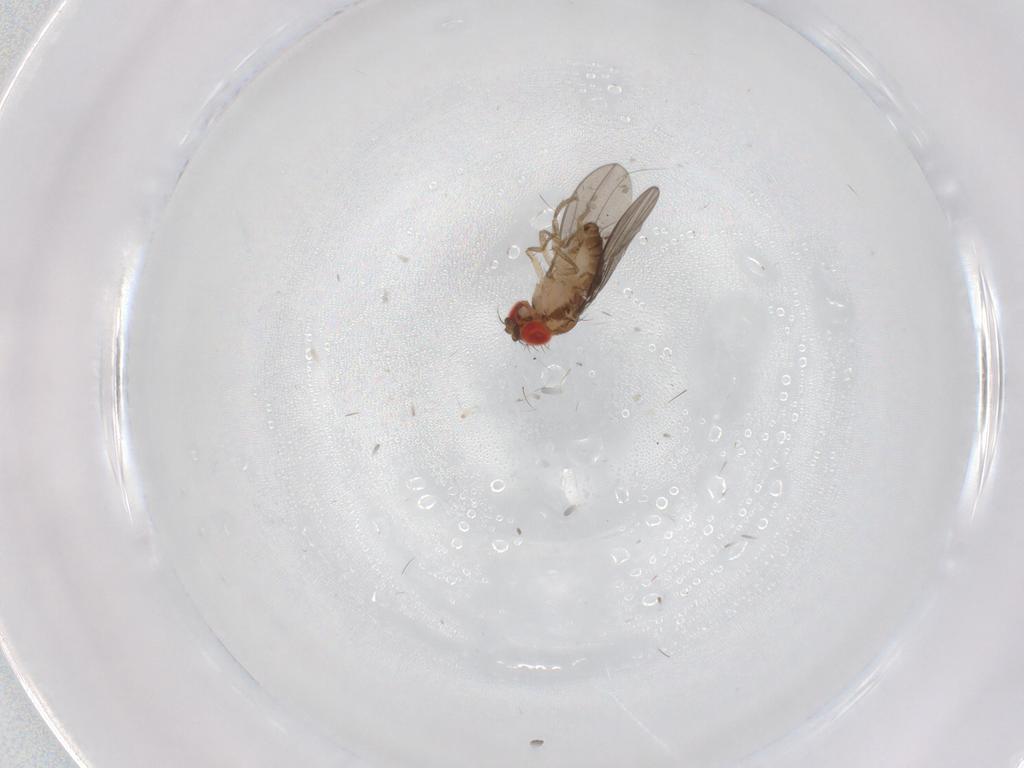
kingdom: Animalia
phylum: Arthropoda
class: Insecta
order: Diptera
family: Drosophilidae
